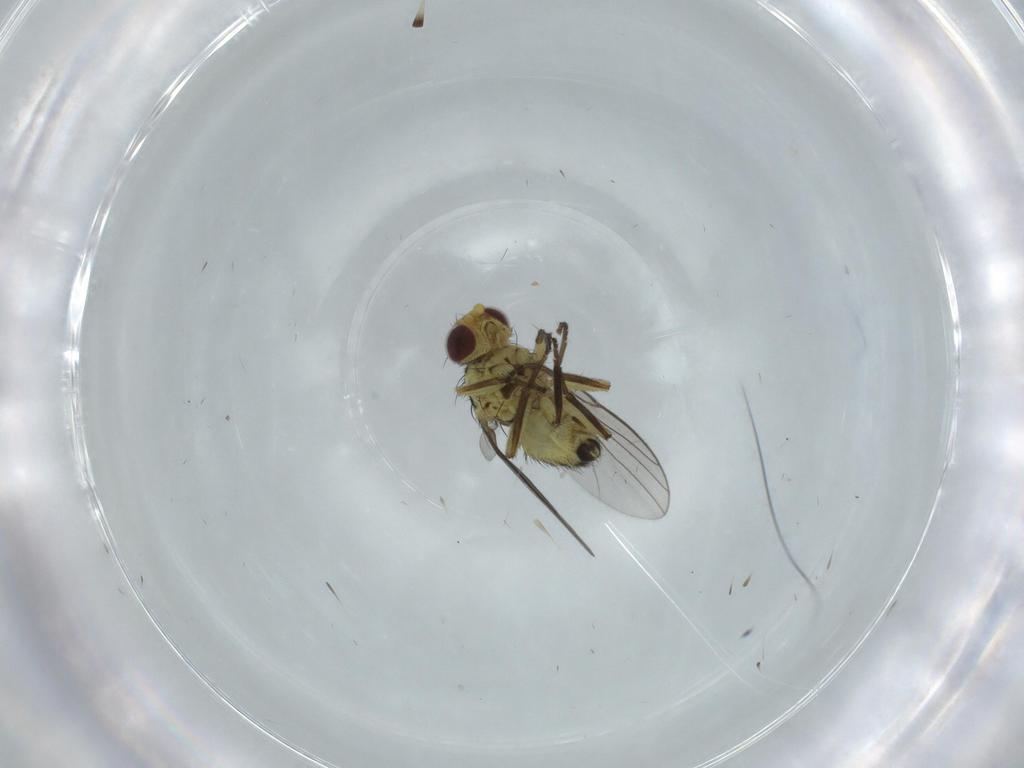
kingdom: Animalia
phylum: Arthropoda
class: Insecta
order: Diptera
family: Agromyzidae
